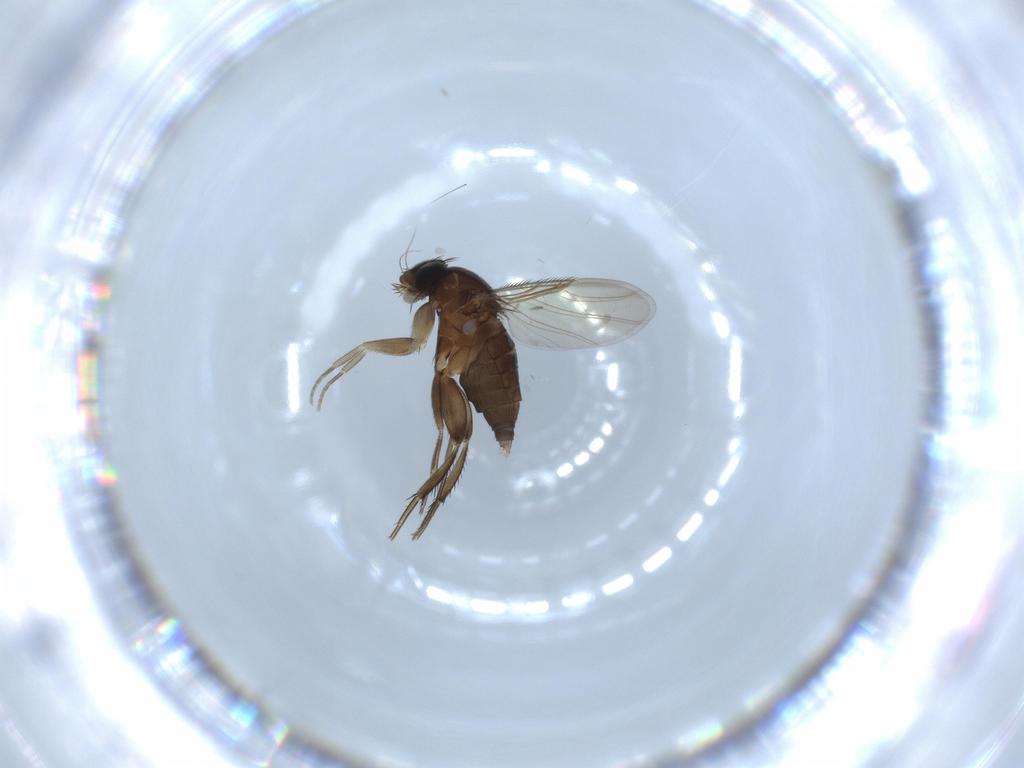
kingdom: Animalia
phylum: Arthropoda
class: Insecta
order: Diptera
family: Phoridae
